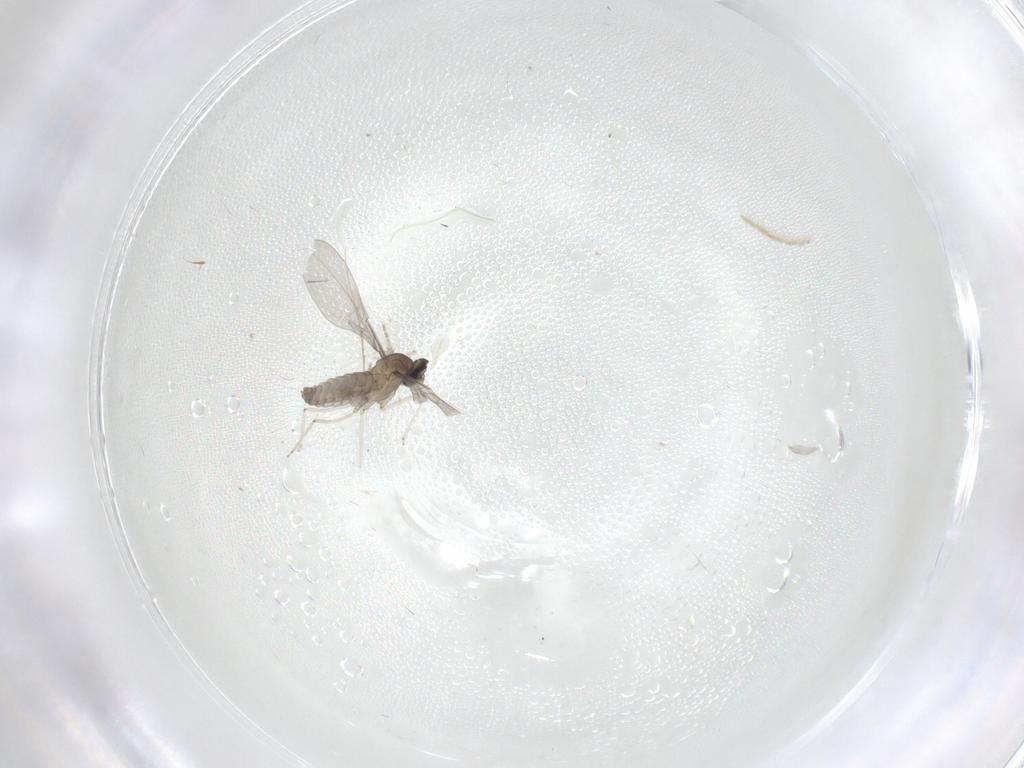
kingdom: Animalia
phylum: Arthropoda
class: Insecta
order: Diptera
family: Cecidomyiidae
